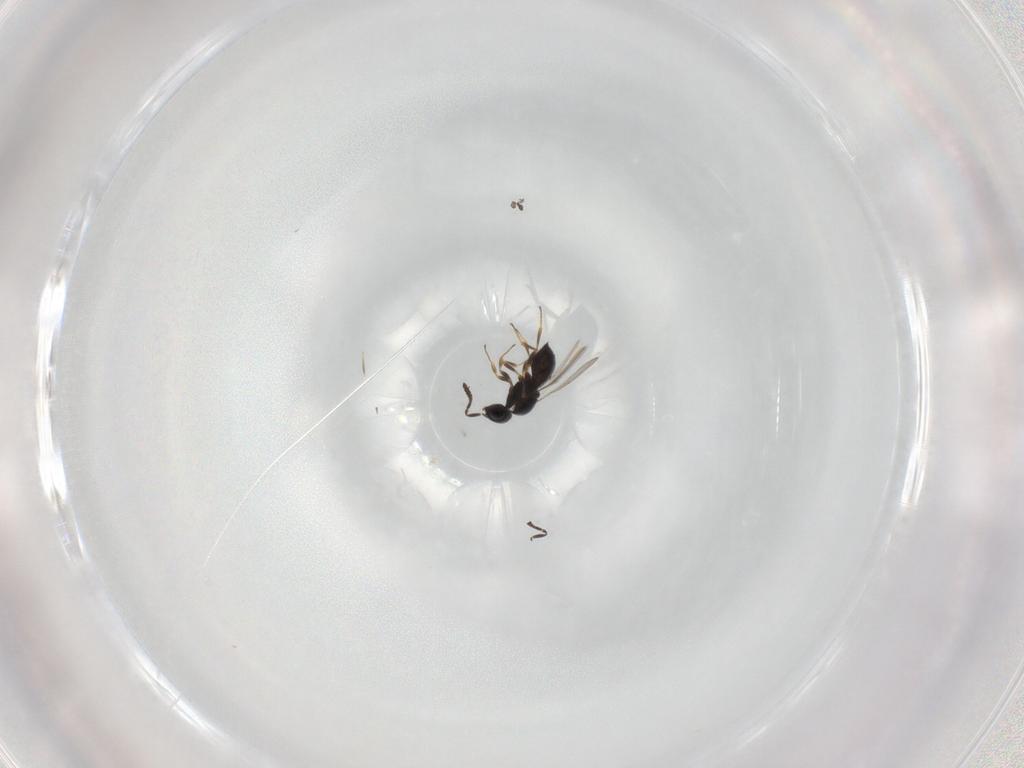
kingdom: Animalia
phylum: Arthropoda
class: Insecta
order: Hymenoptera
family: Scelionidae
